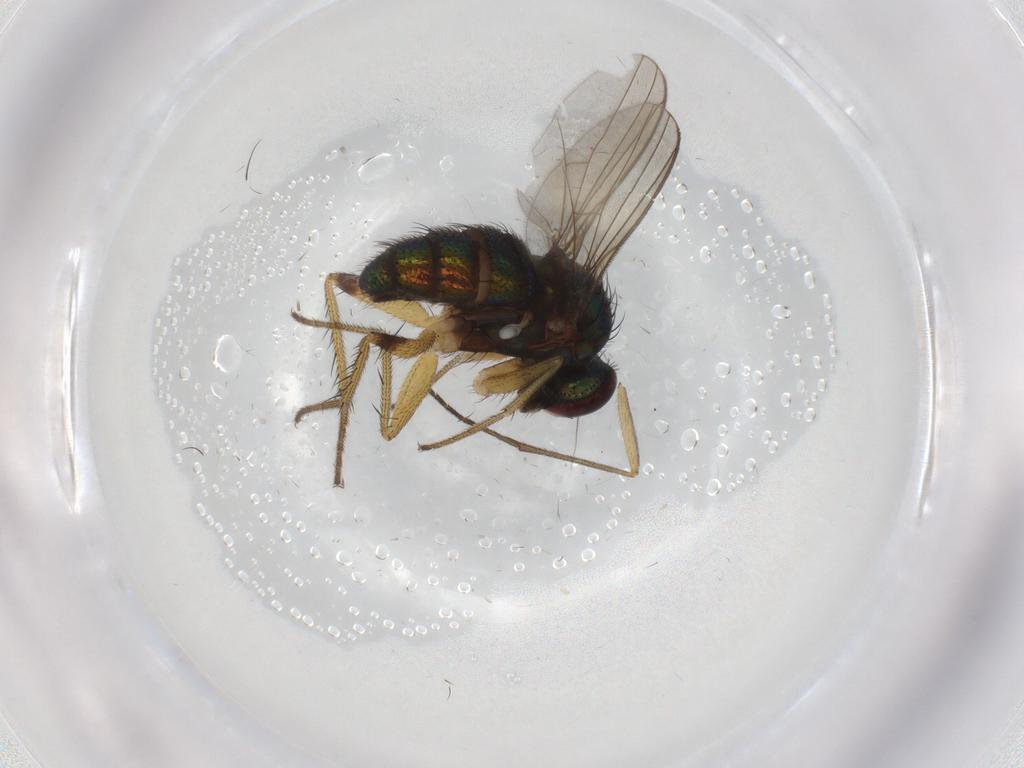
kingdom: Animalia
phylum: Arthropoda
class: Insecta
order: Diptera
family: Dolichopodidae
